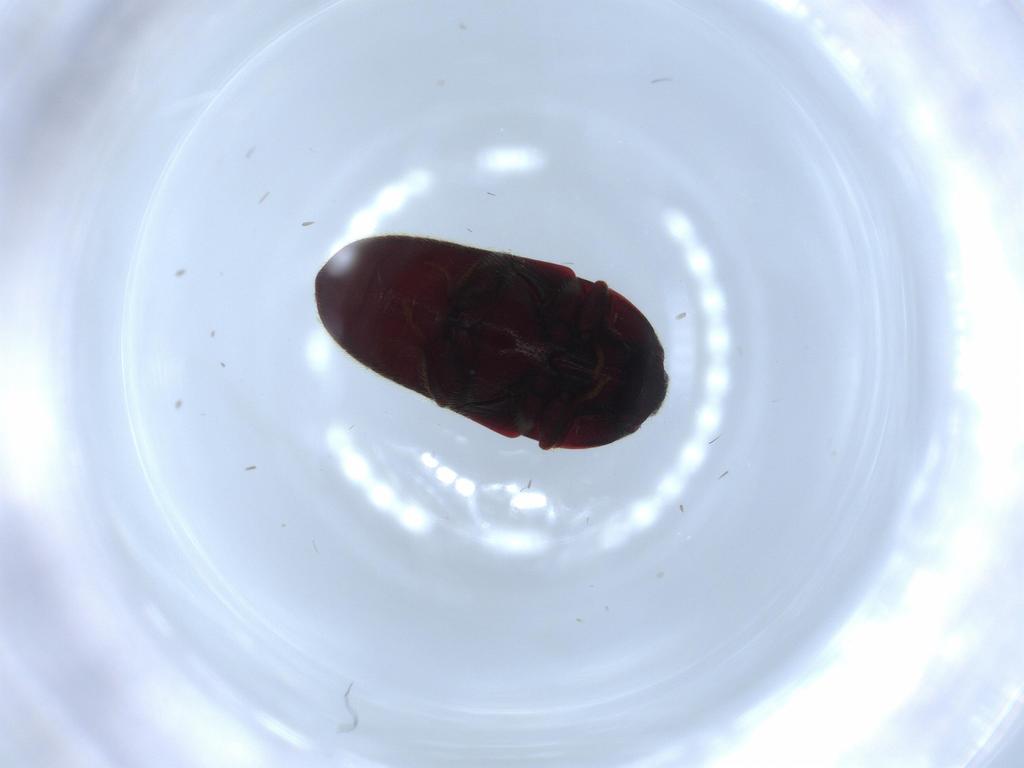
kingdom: Animalia
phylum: Arthropoda
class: Insecta
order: Coleoptera
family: Throscidae
